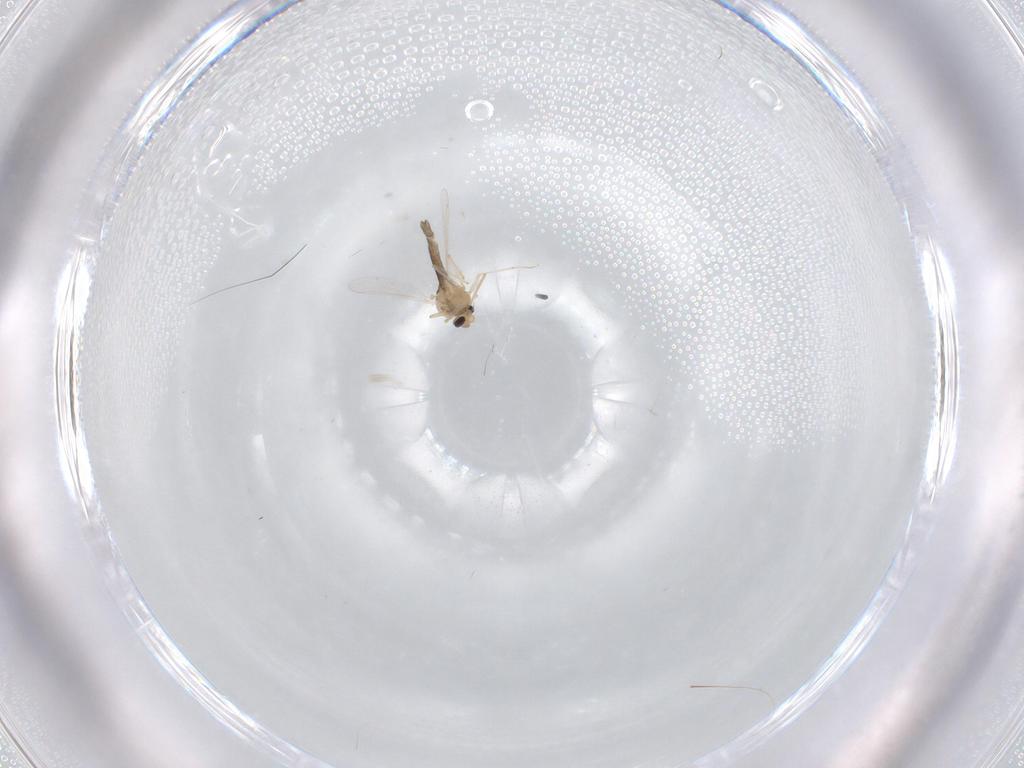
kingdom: Animalia
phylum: Arthropoda
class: Insecta
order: Diptera
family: Chironomidae
